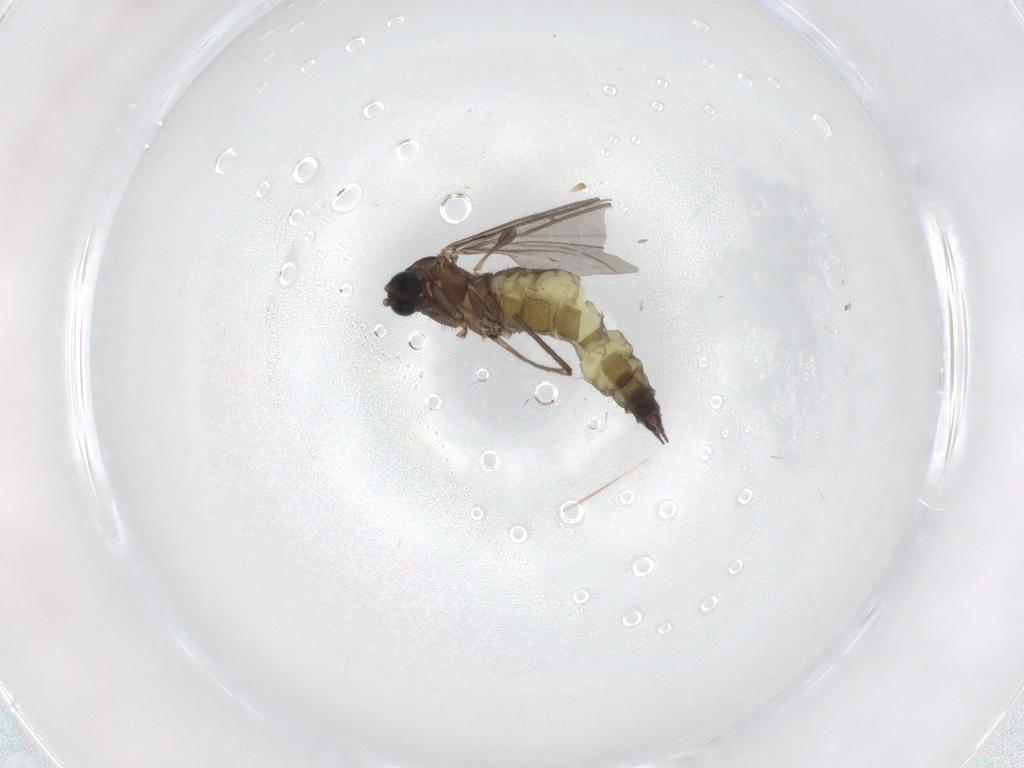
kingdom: Animalia
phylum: Arthropoda
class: Insecta
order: Diptera
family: Sciaridae
